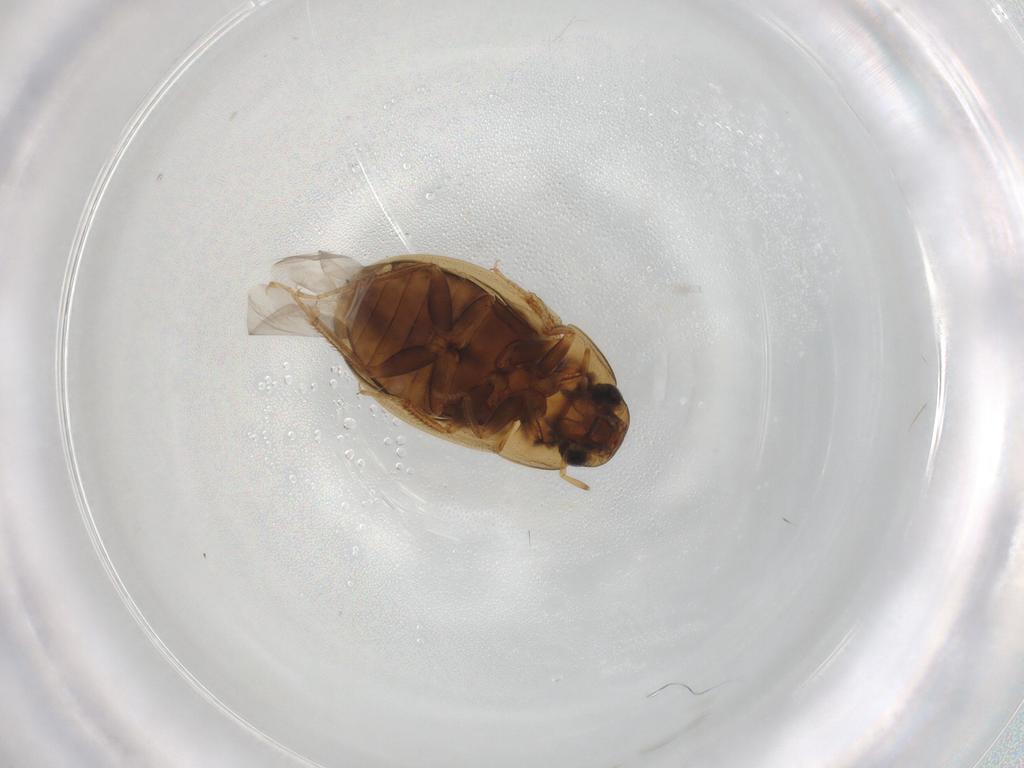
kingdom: Animalia
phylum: Arthropoda
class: Insecta
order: Coleoptera
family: Hydrophilidae
